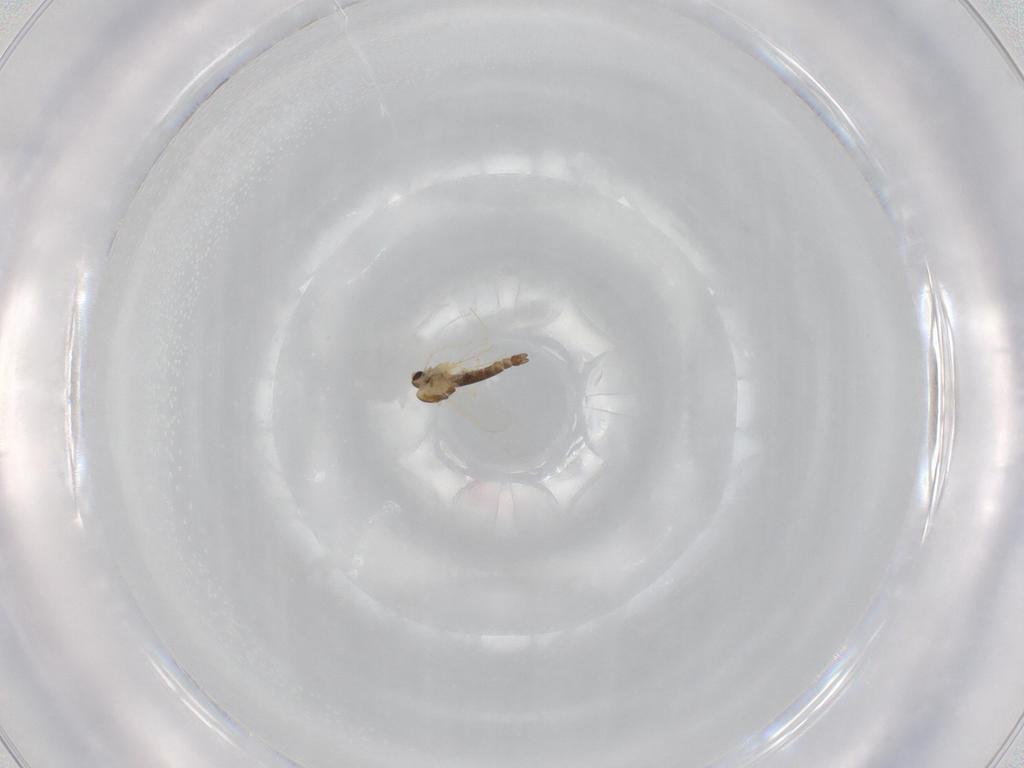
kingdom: Animalia
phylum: Arthropoda
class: Insecta
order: Diptera
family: Chironomidae
